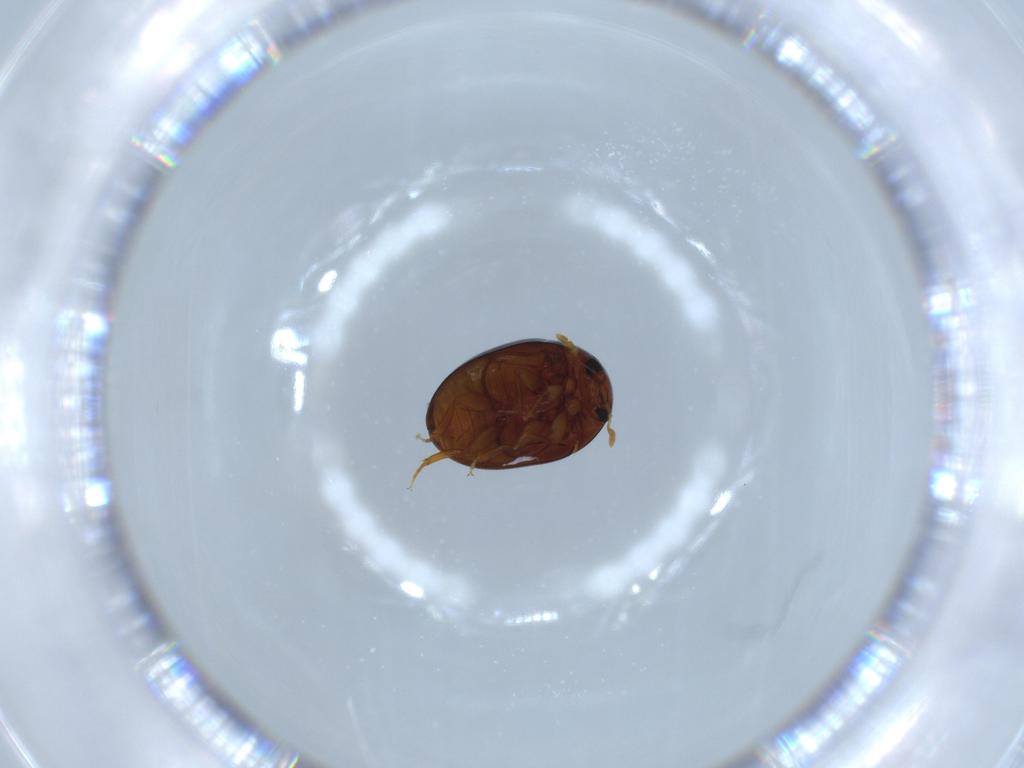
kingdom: Animalia
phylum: Arthropoda
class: Insecta
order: Coleoptera
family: Phalacridae
